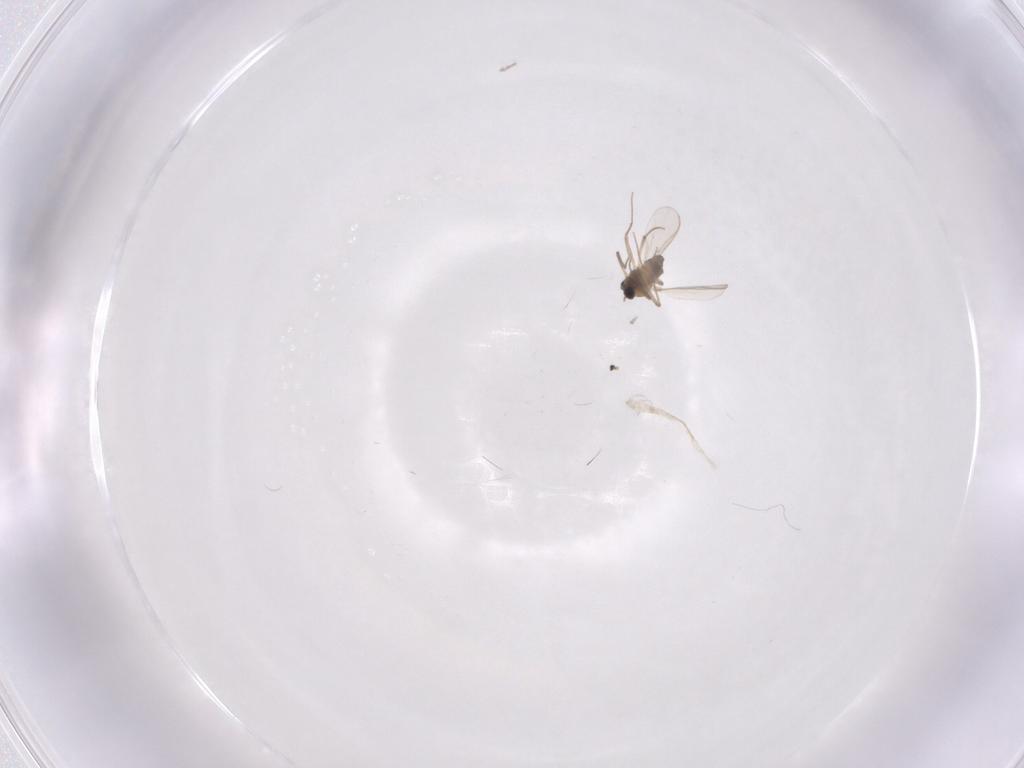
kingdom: Animalia
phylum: Arthropoda
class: Insecta
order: Diptera
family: Chironomidae
